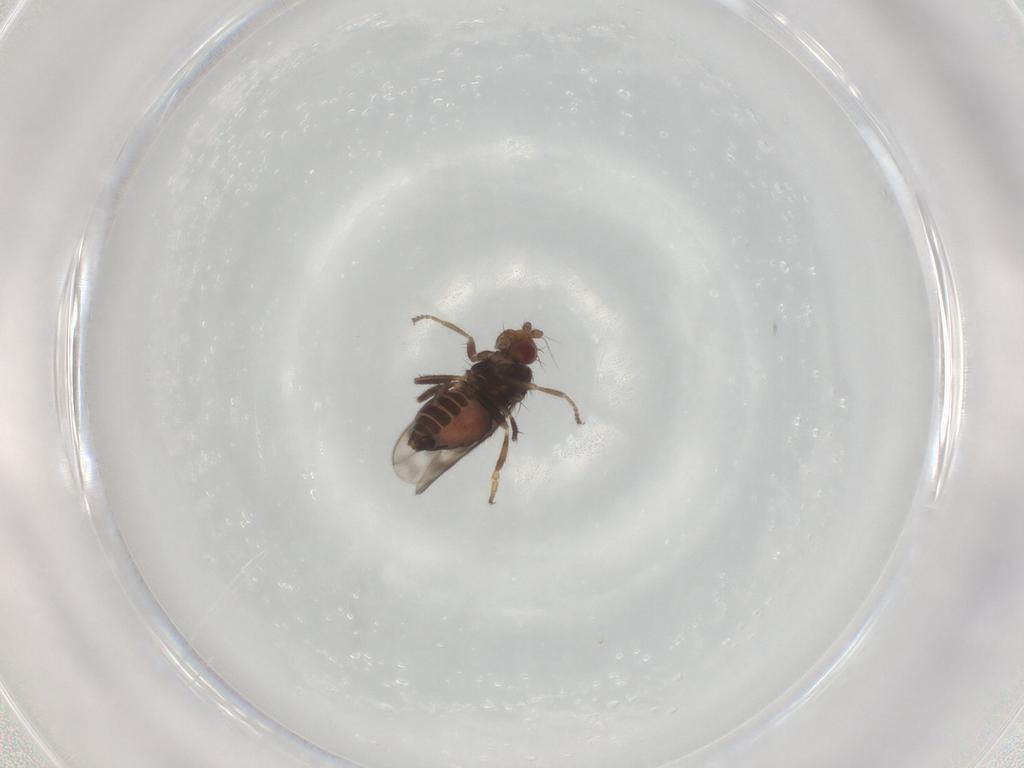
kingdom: Animalia
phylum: Arthropoda
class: Insecta
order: Diptera
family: Sphaeroceridae
